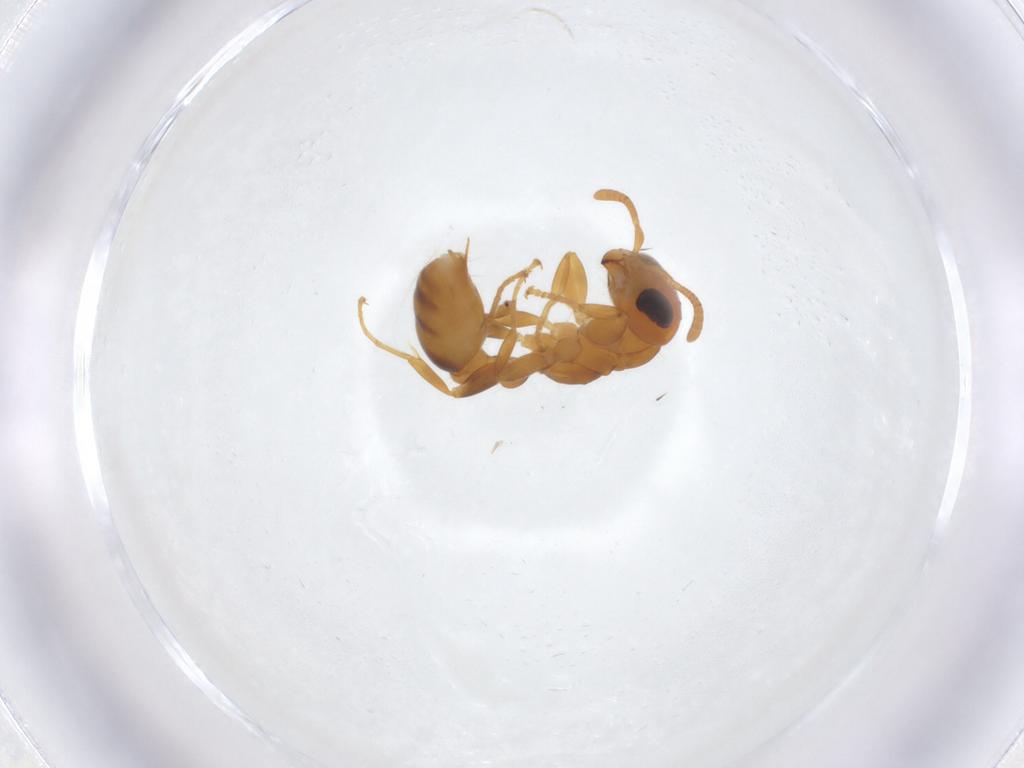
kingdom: Animalia
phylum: Arthropoda
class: Insecta
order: Hymenoptera
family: Formicidae
